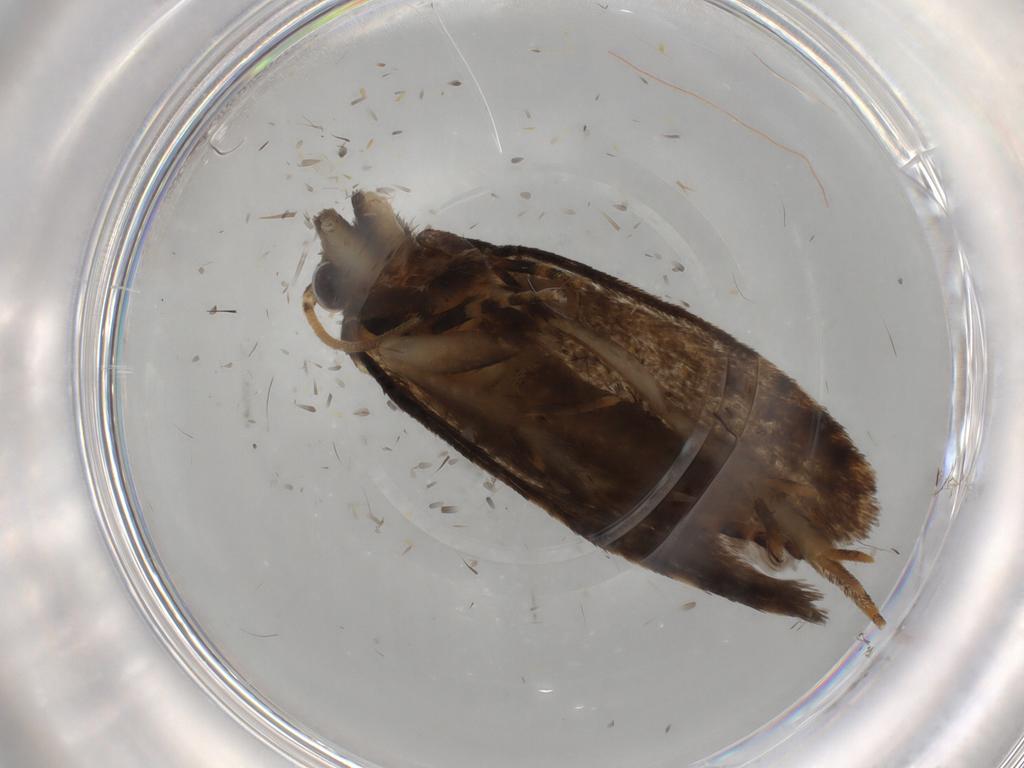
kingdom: Animalia
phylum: Arthropoda
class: Insecta
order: Lepidoptera
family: Tineidae
